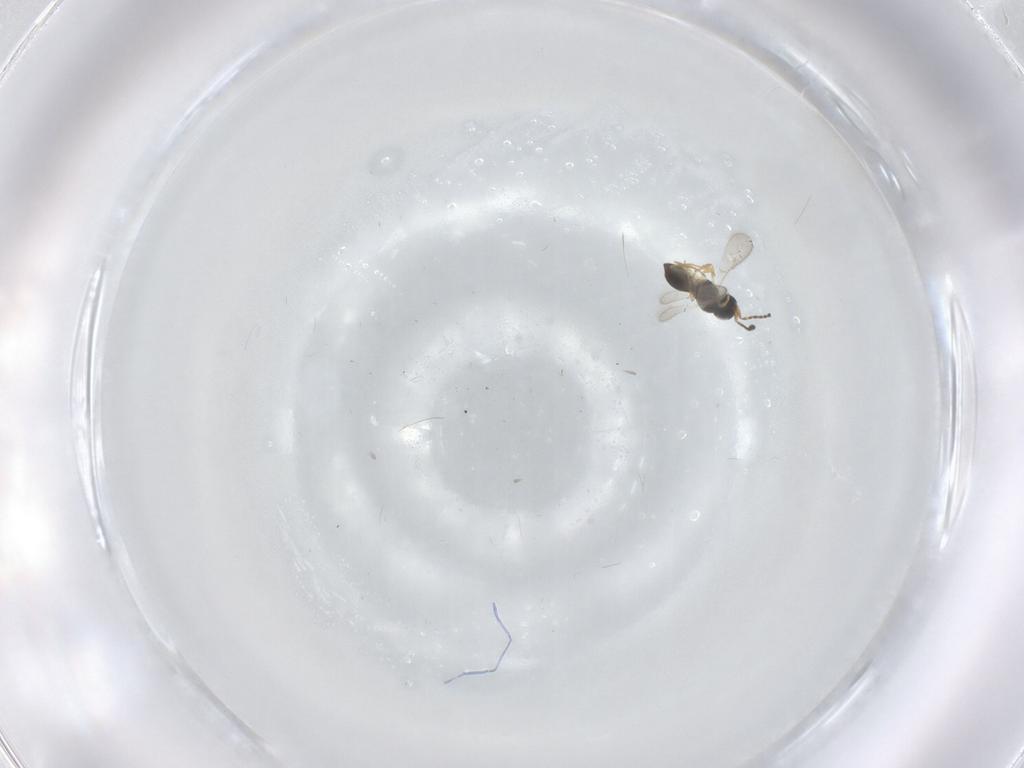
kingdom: Animalia
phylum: Arthropoda
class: Insecta
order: Hymenoptera
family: Scelionidae
